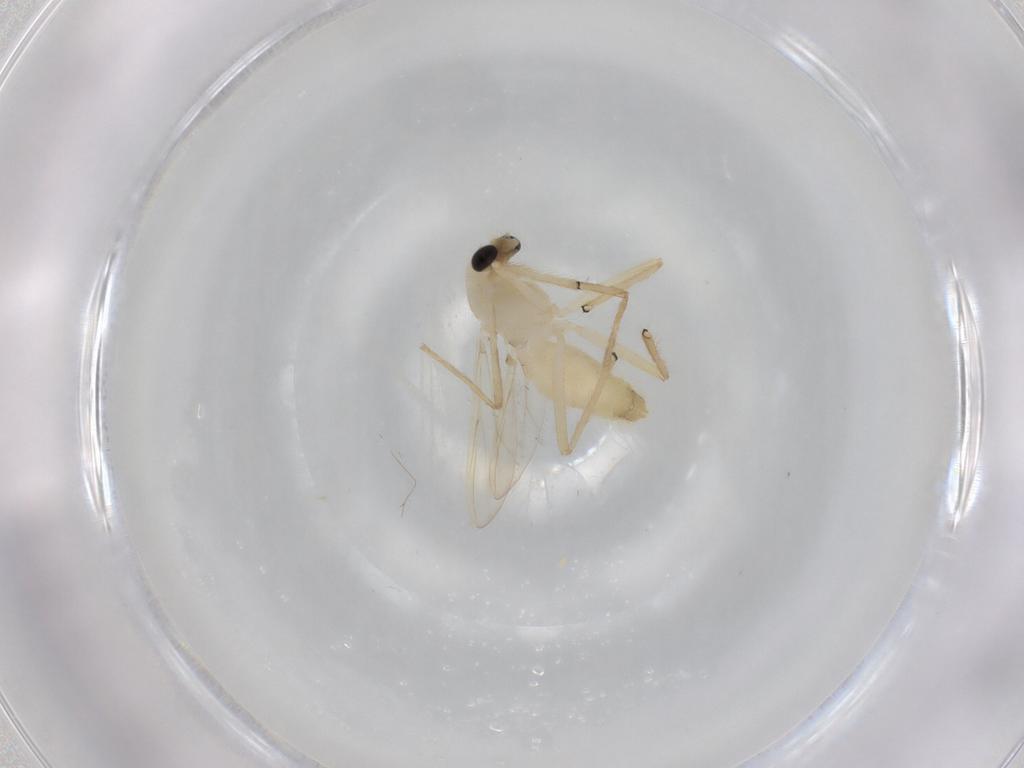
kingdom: Animalia
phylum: Arthropoda
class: Insecta
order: Diptera
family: Chironomidae
